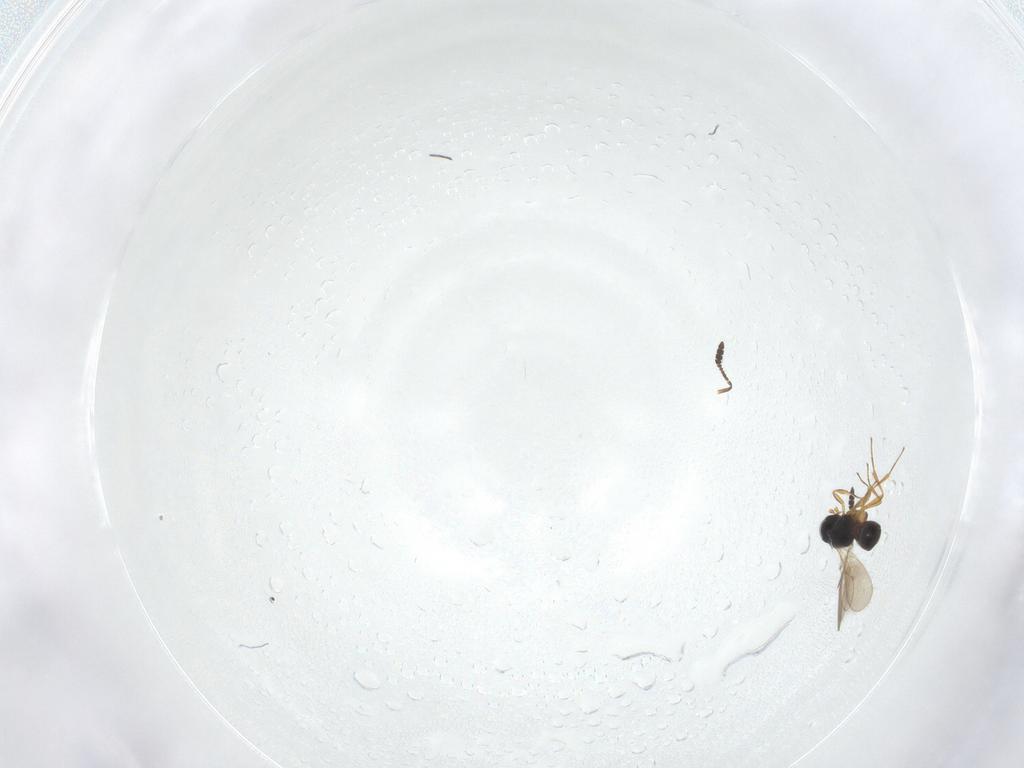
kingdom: Animalia
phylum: Arthropoda
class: Insecta
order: Hymenoptera
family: Scelionidae
